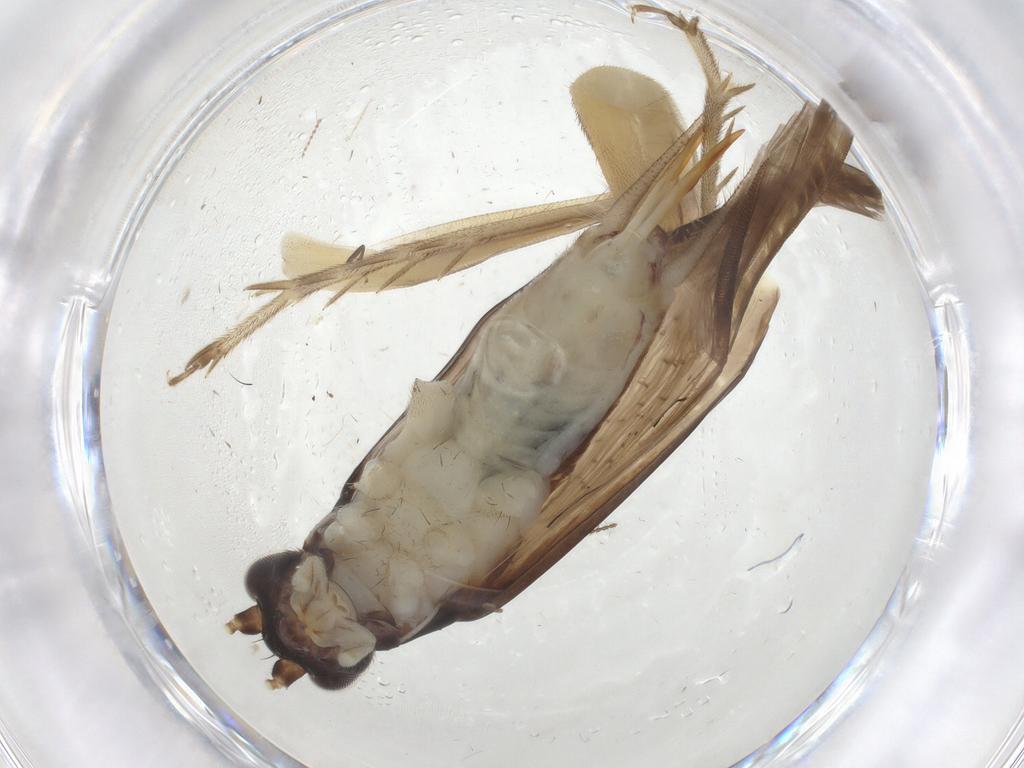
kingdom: Animalia
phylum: Arthropoda
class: Insecta
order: Orthoptera
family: Trigonidiidae
